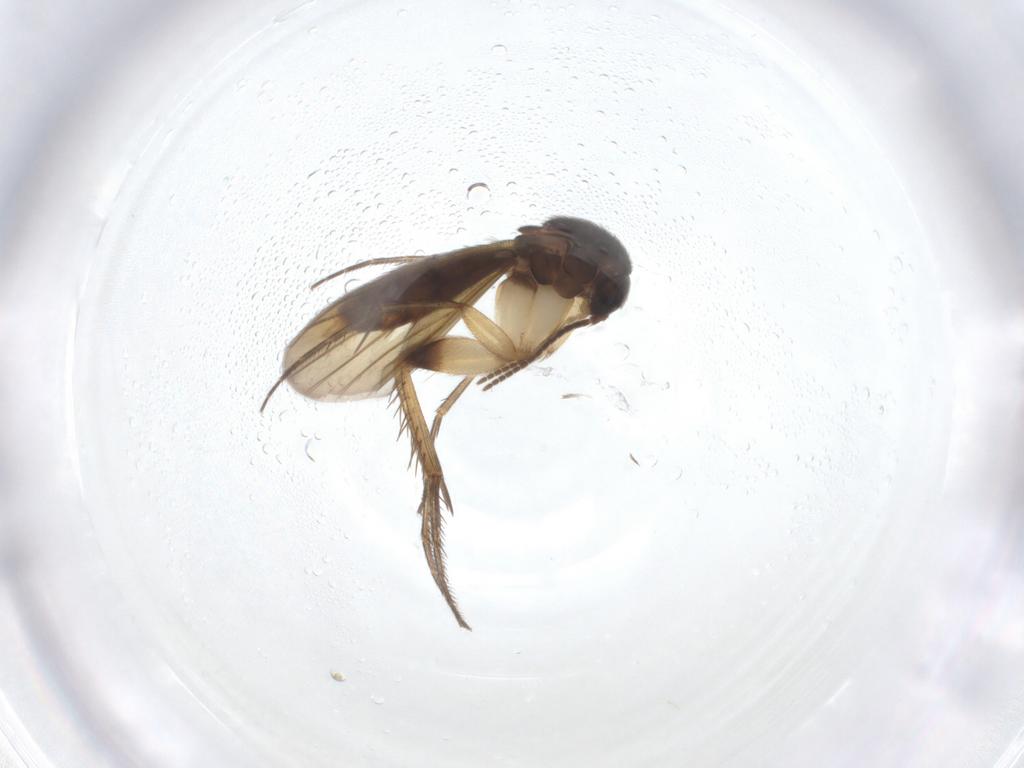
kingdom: Animalia
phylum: Arthropoda
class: Insecta
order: Diptera
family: Mycetophilidae
